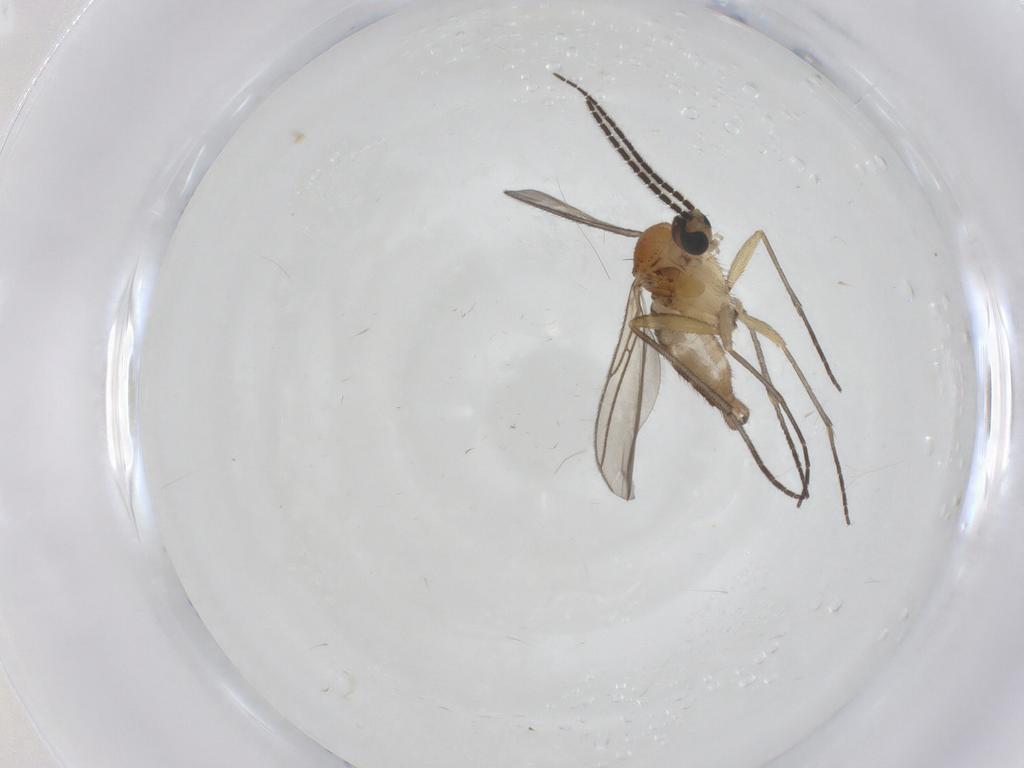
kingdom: Animalia
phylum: Arthropoda
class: Insecta
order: Diptera
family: Sciaridae
